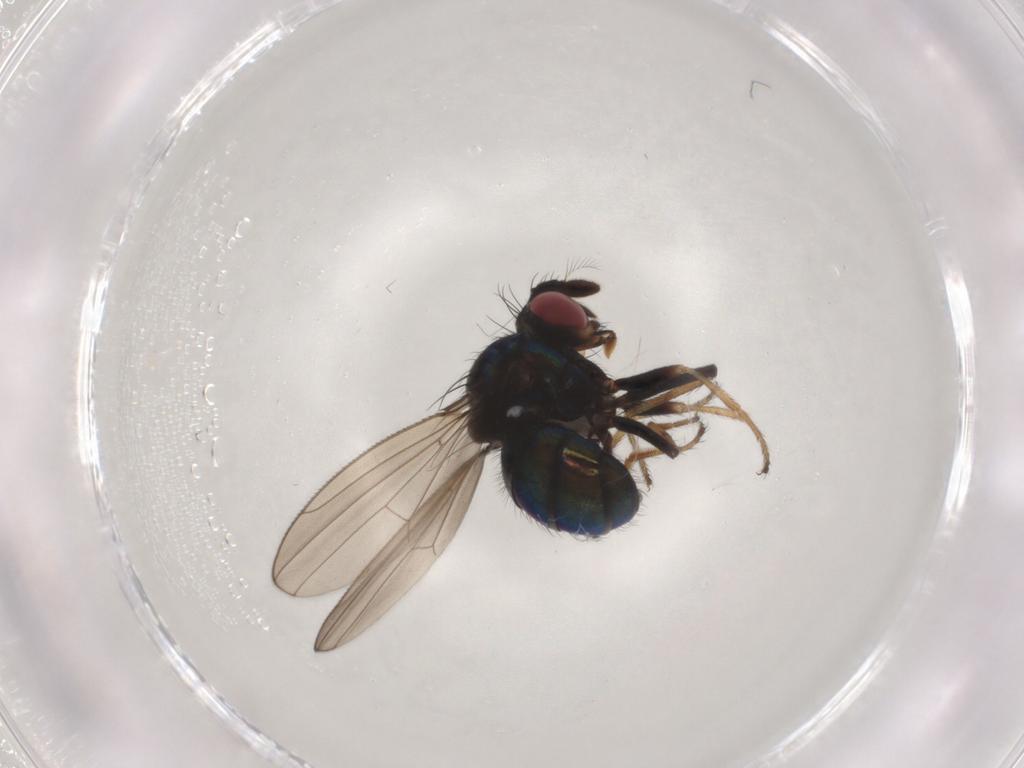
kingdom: Animalia
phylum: Arthropoda
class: Insecta
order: Diptera
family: Ephydridae
